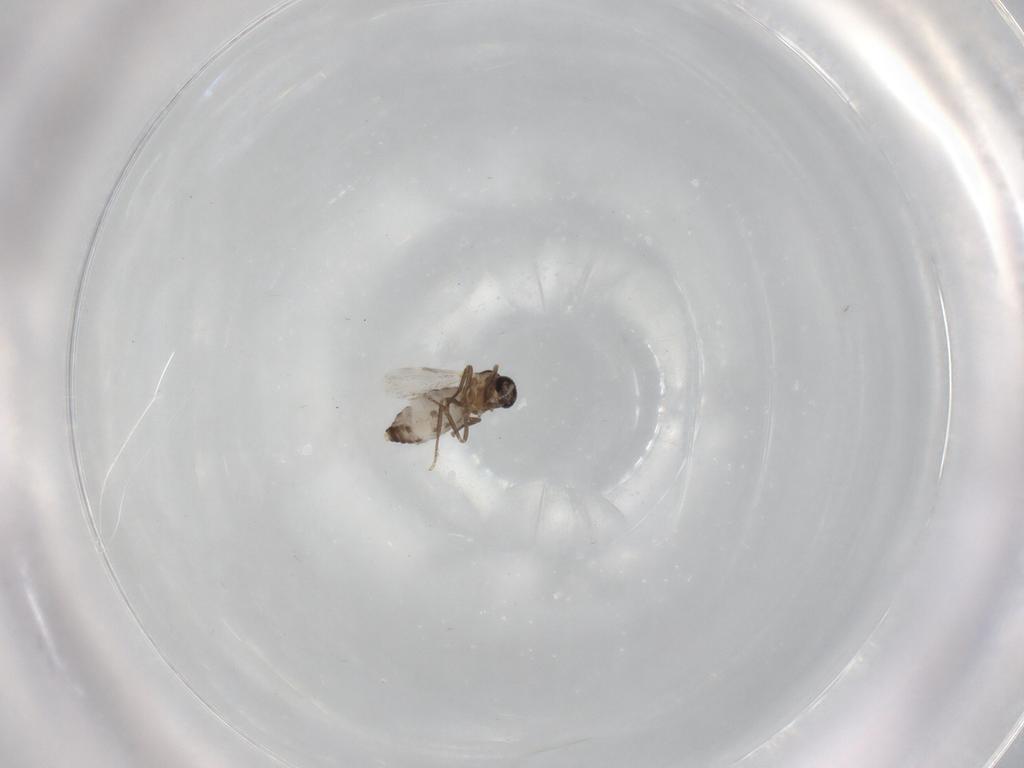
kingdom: Animalia
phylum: Arthropoda
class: Insecta
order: Diptera
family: Ceratopogonidae
